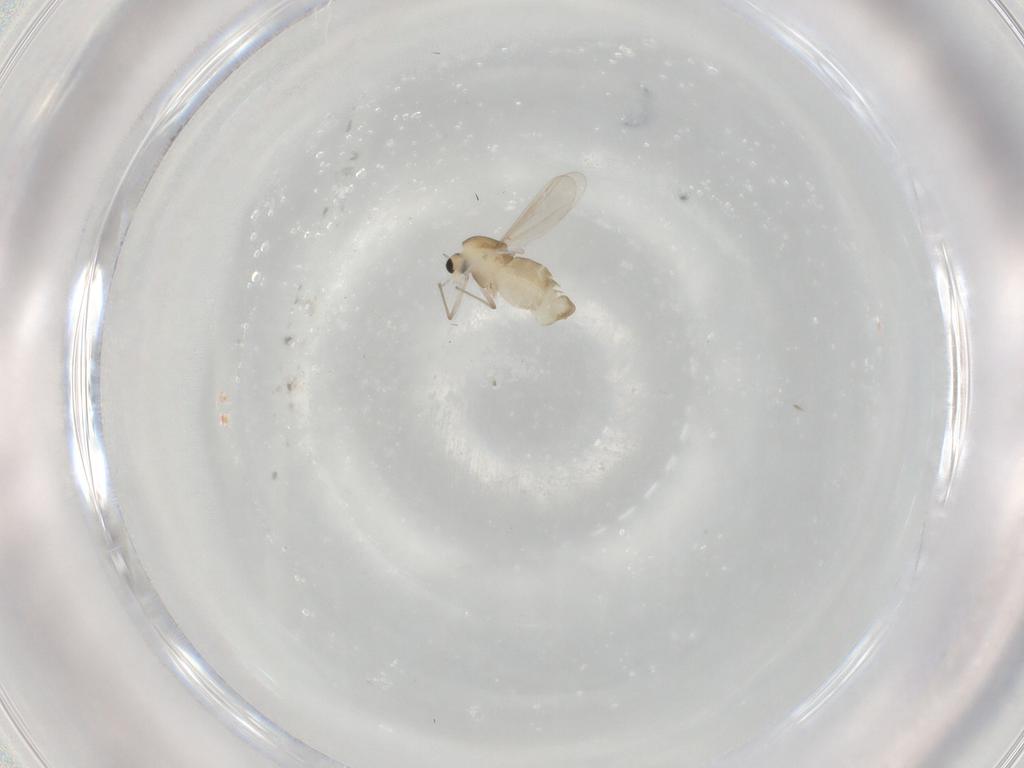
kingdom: Animalia
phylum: Arthropoda
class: Insecta
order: Diptera
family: Chironomidae
